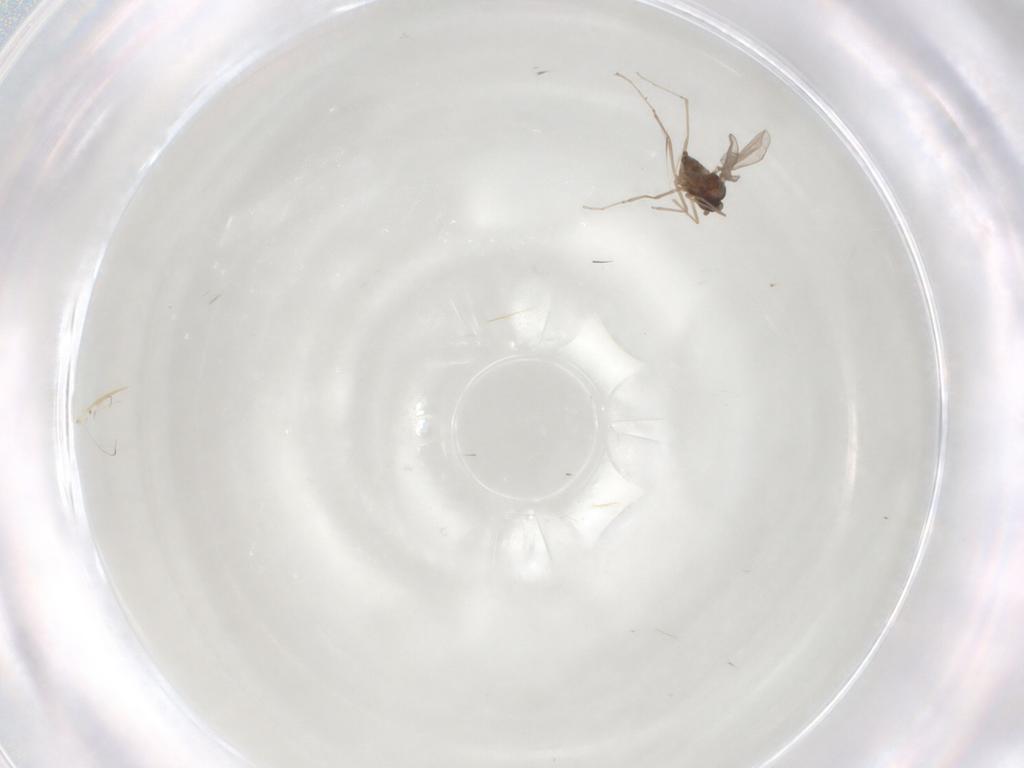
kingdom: Animalia
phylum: Arthropoda
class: Insecta
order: Diptera
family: Cecidomyiidae
